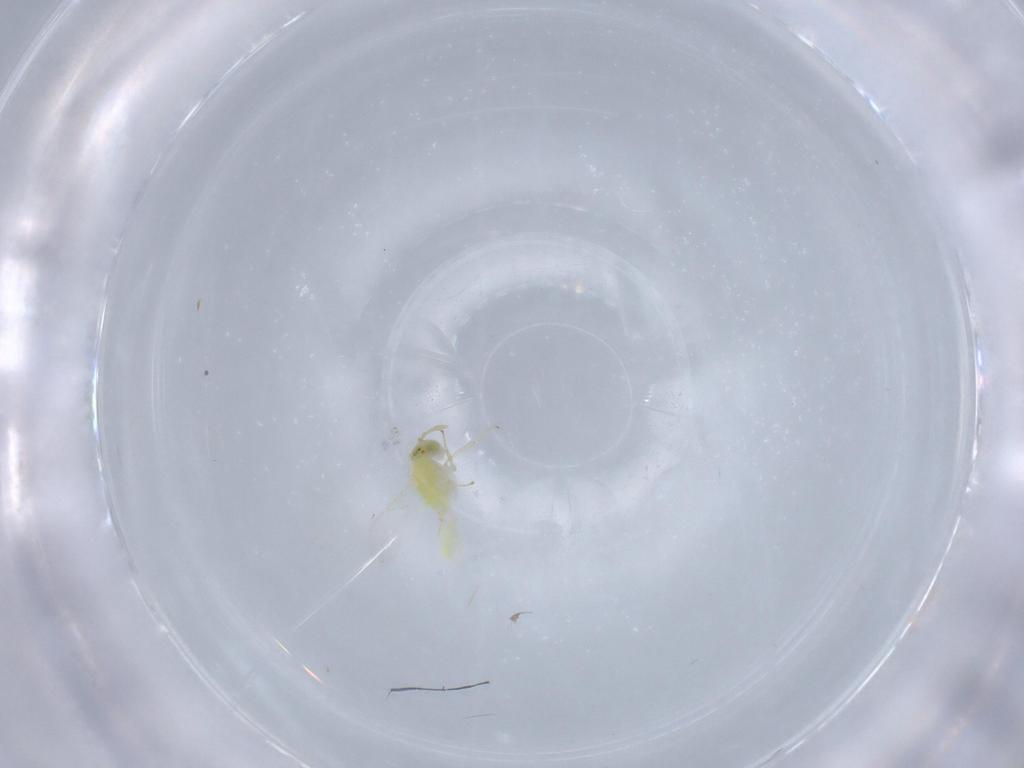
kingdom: Animalia
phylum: Arthropoda
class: Insecta
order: Hymenoptera
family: Aphelinidae
